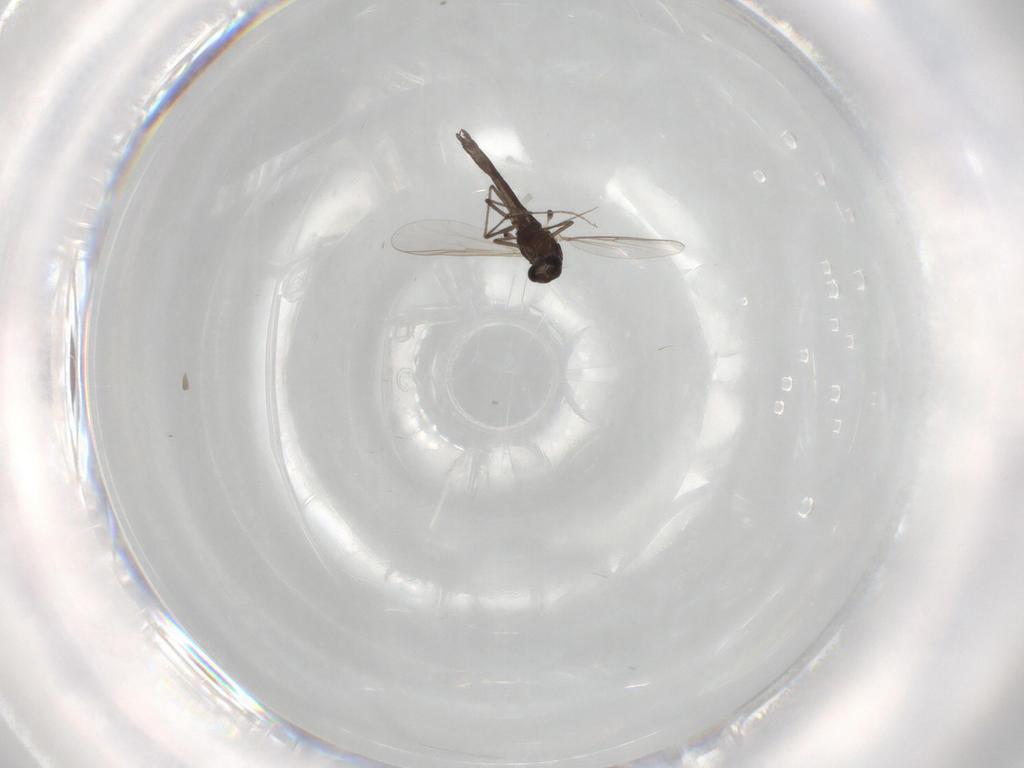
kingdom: Animalia
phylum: Arthropoda
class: Insecta
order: Diptera
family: Chironomidae
